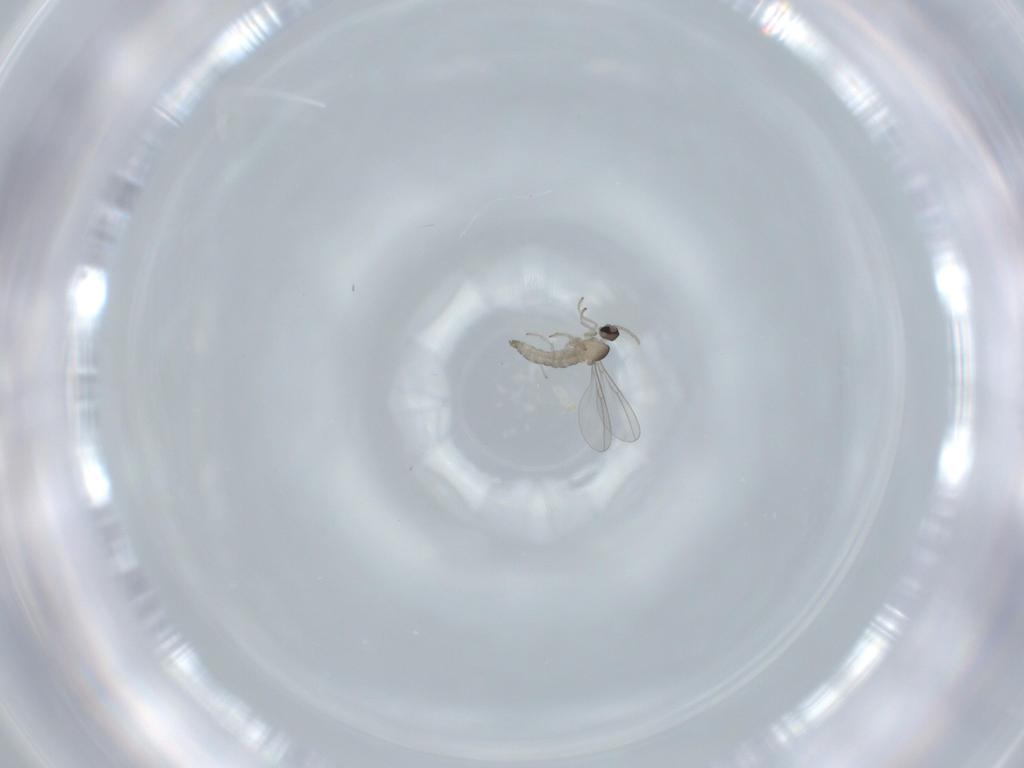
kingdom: Animalia
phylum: Arthropoda
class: Insecta
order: Diptera
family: Cecidomyiidae
